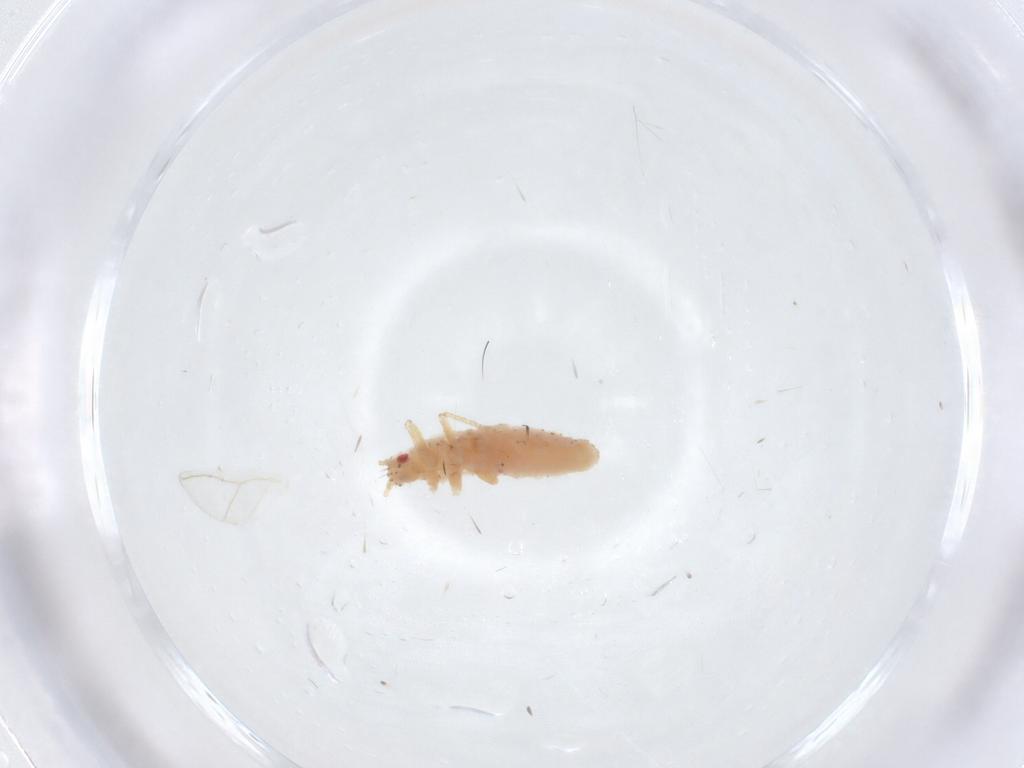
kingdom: Animalia
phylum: Arthropoda
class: Insecta
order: Hemiptera
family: Aphididae
